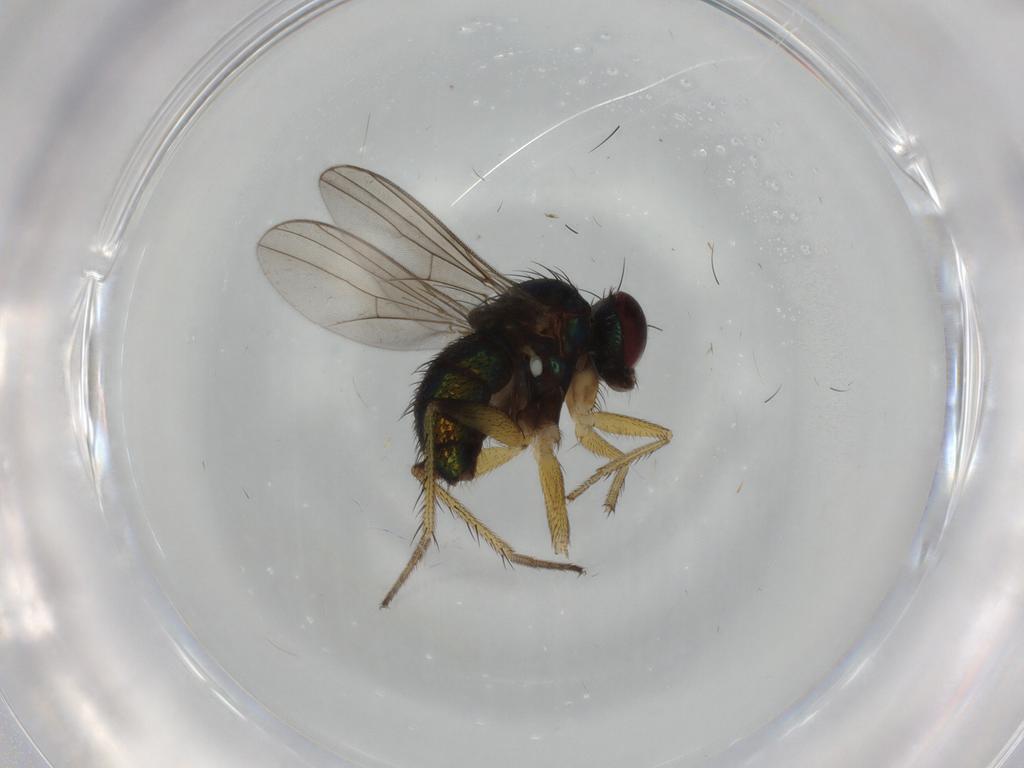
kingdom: Animalia
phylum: Arthropoda
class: Insecta
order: Diptera
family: Dolichopodidae
